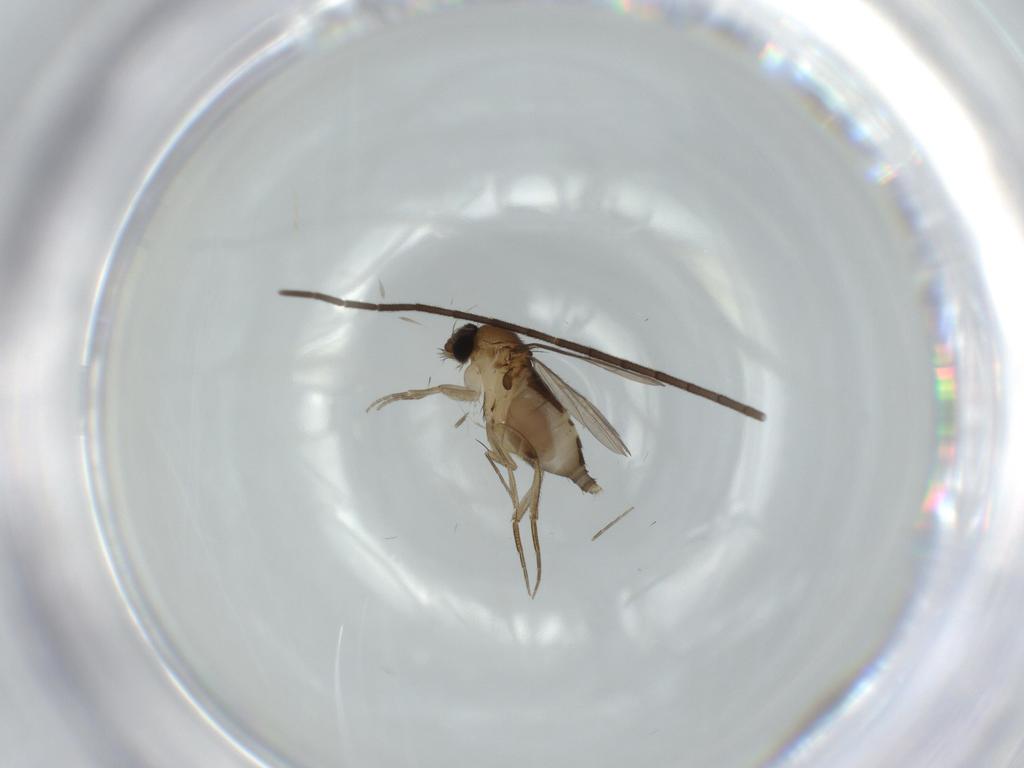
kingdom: Animalia
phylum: Arthropoda
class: Insecta
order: Diptera
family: Phoridae
